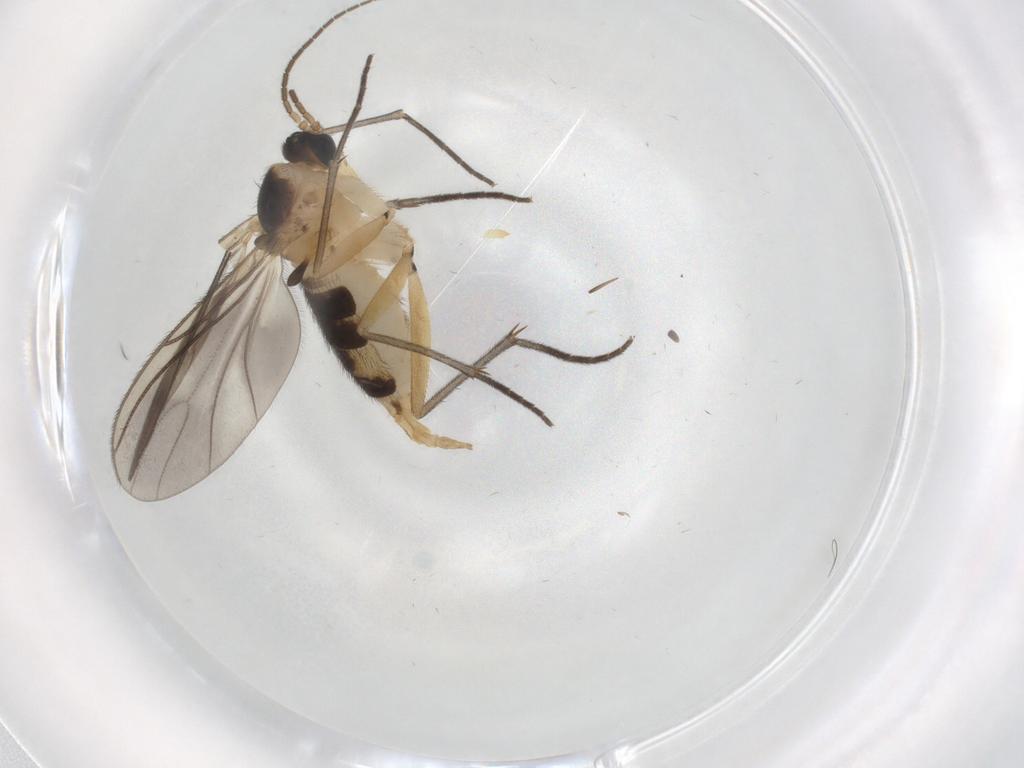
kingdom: Animalia
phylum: Arthropoda
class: Insecta
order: Diptera
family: Sciaridae
